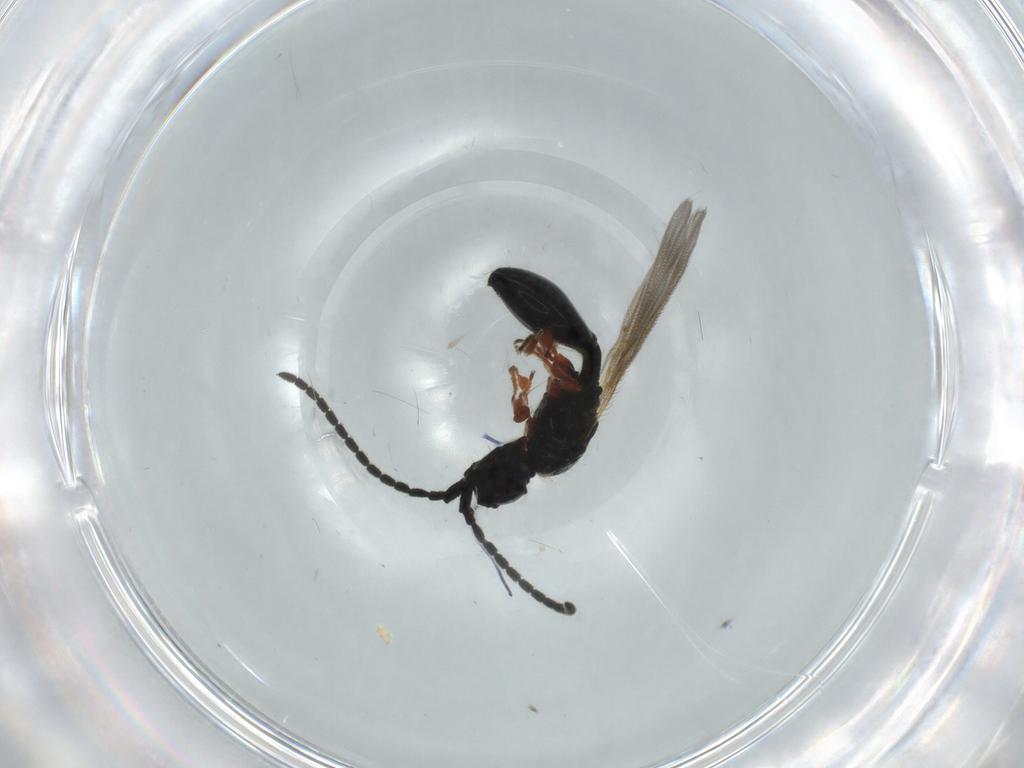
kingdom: Animalia
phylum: Arthropoda
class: Insecta
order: Hymenoptera
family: Diapriidae
